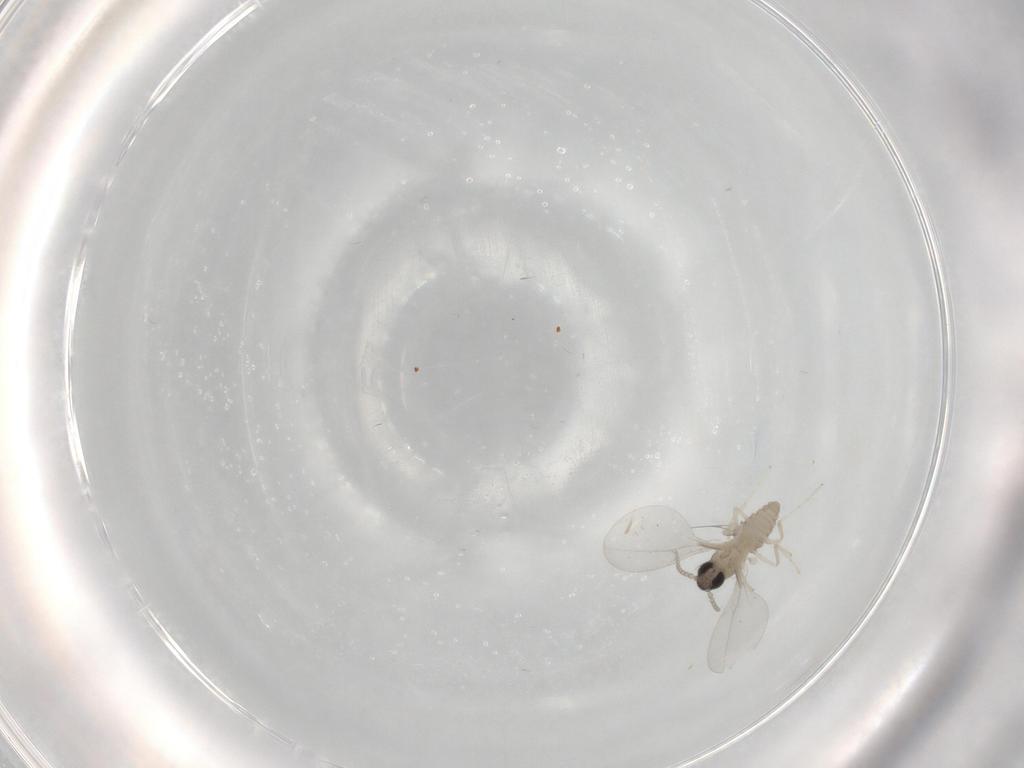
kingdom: Animalia
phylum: Arthropoda
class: Insecta
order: Diptera
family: Cecidomyiidae
